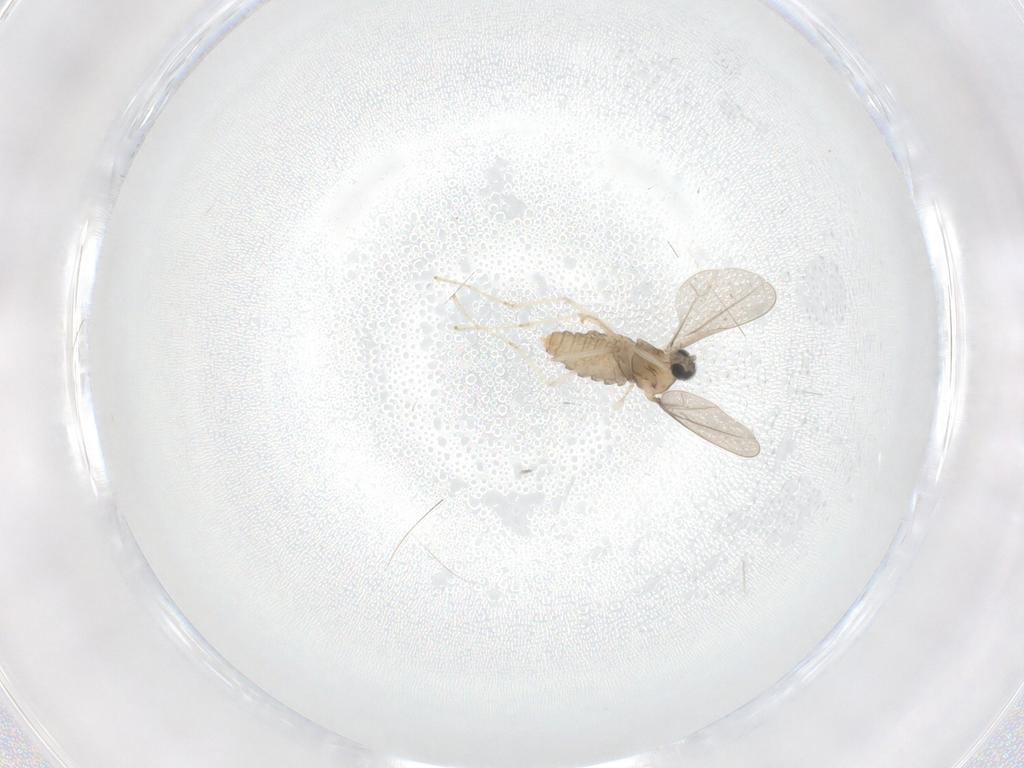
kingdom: Animalia
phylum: Arthropoda
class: Insecta
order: Diptera
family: Cecidomyiidae
